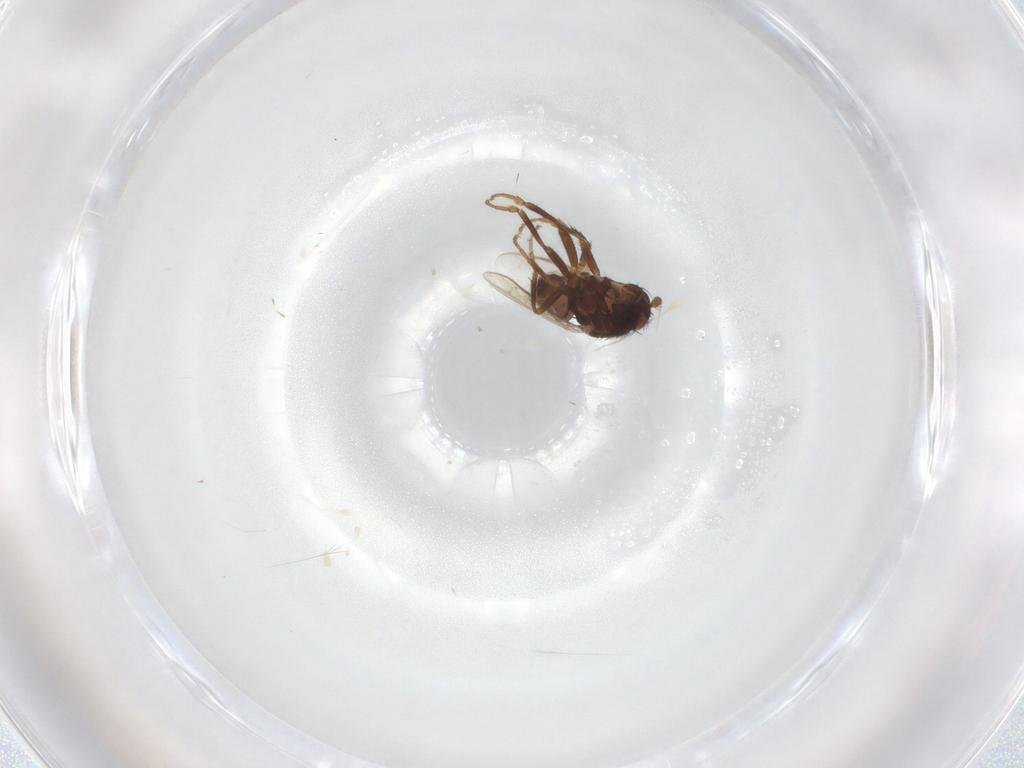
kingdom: Animalia
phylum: Arthropoda
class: Insecta
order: Diptera
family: Sphaeroceridae
